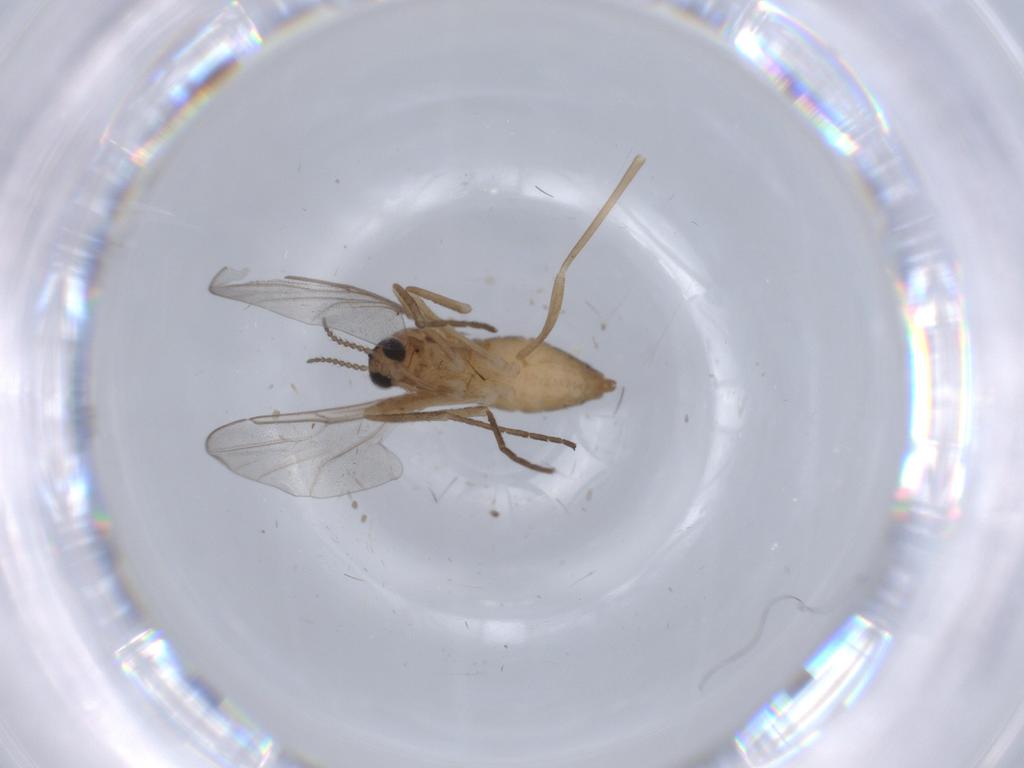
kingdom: Animalia
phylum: Arthropoda
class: Insecta
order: Diptera
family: Cecidomyiidae
